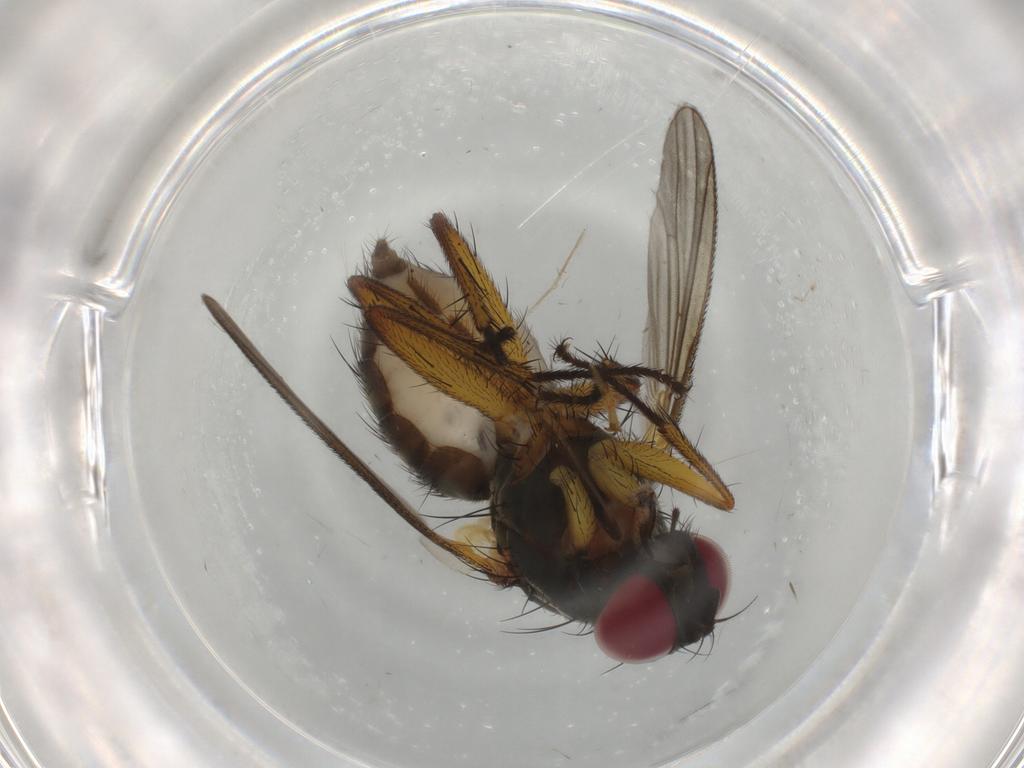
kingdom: Animalia
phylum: Arthropoda
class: Insecta
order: Diptera
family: Muscidae
